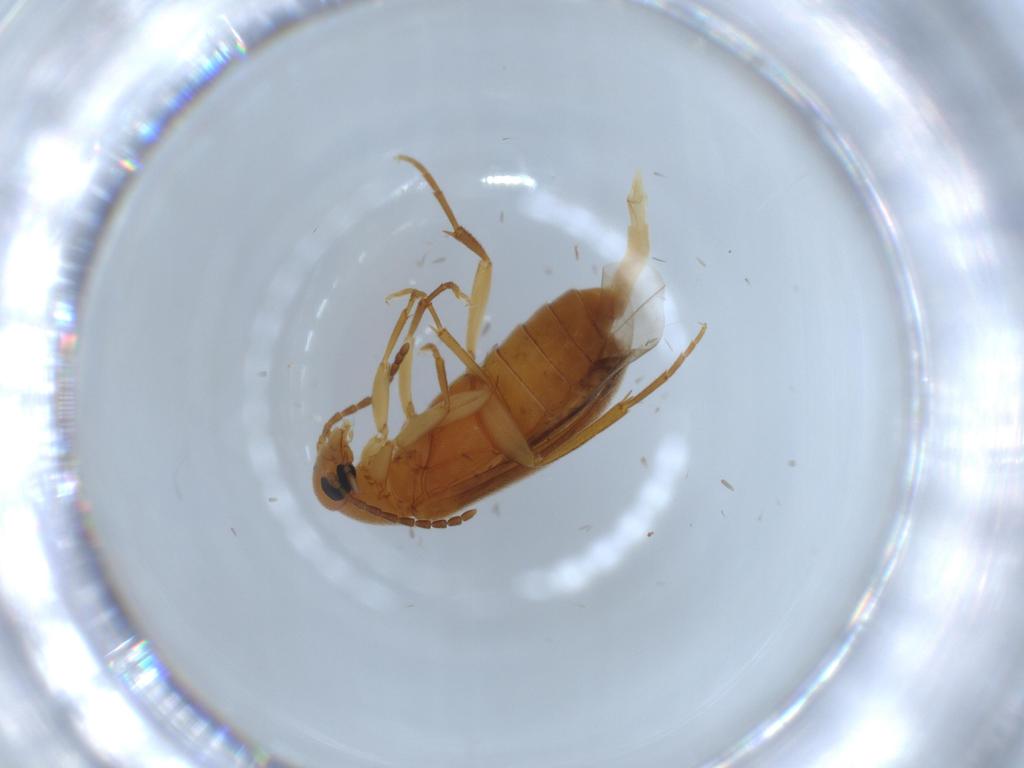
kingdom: Animalia
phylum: Arthropoda
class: Insecta
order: Coleoptera
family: Scraptiidae
